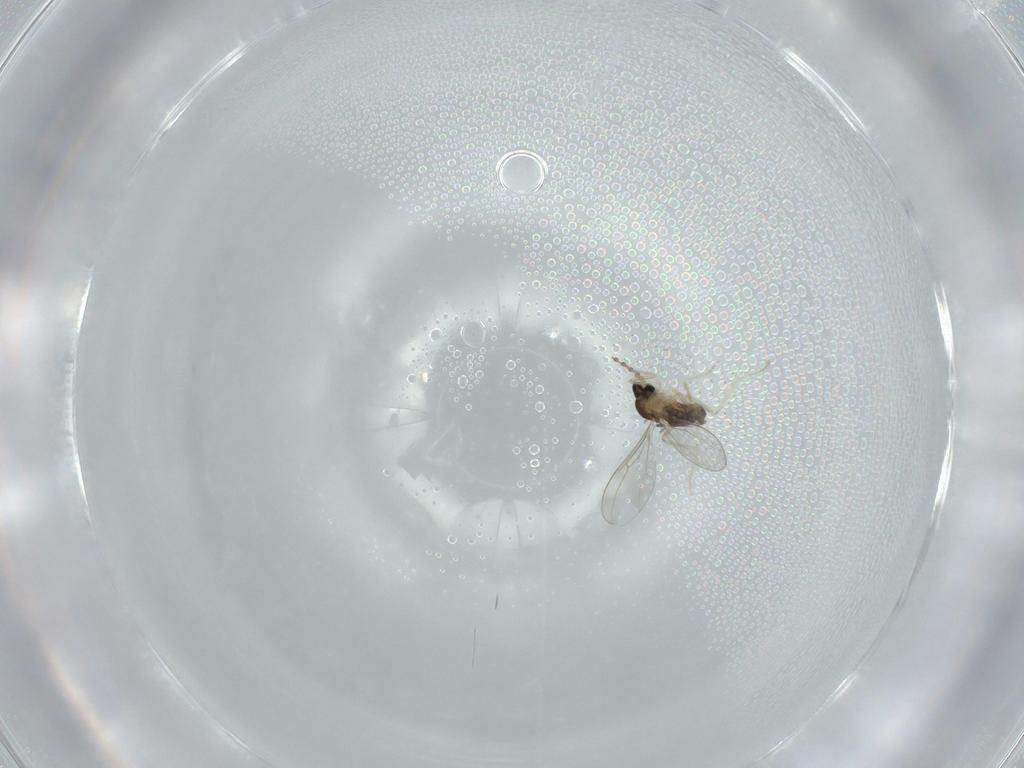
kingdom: Animalia
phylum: Arthropoda
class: Insecta
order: Diptera
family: Cecidomyiidae
